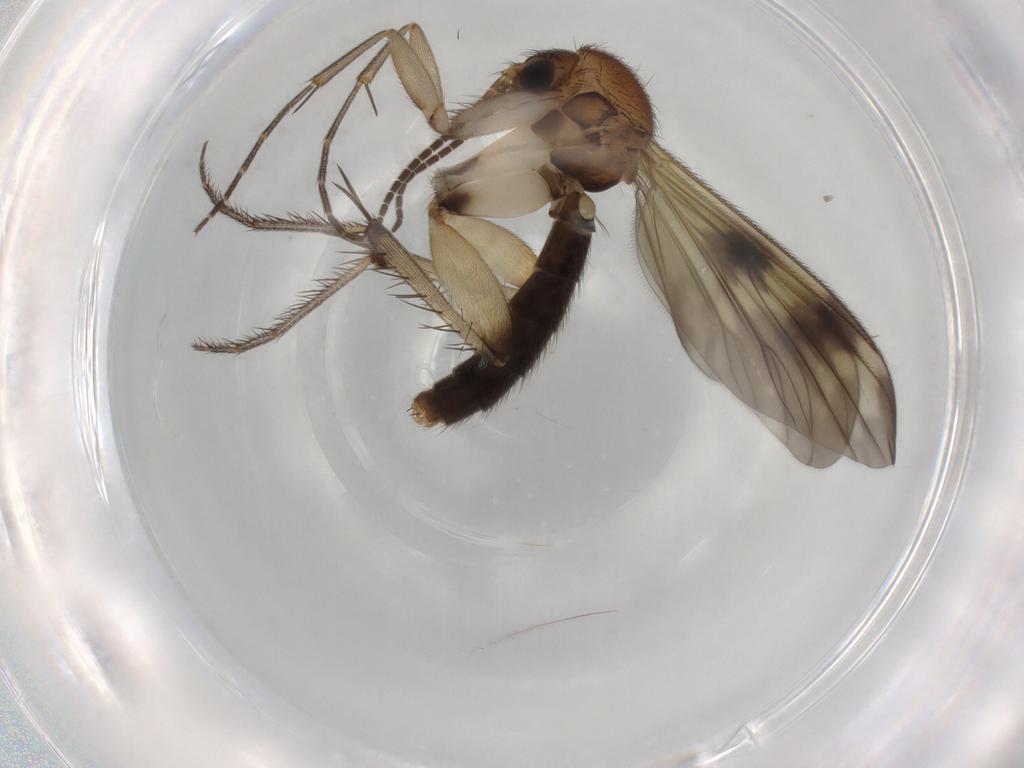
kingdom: Animalia
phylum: Arthropoda
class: Insecta
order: Diptera
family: Mycetophilidae
